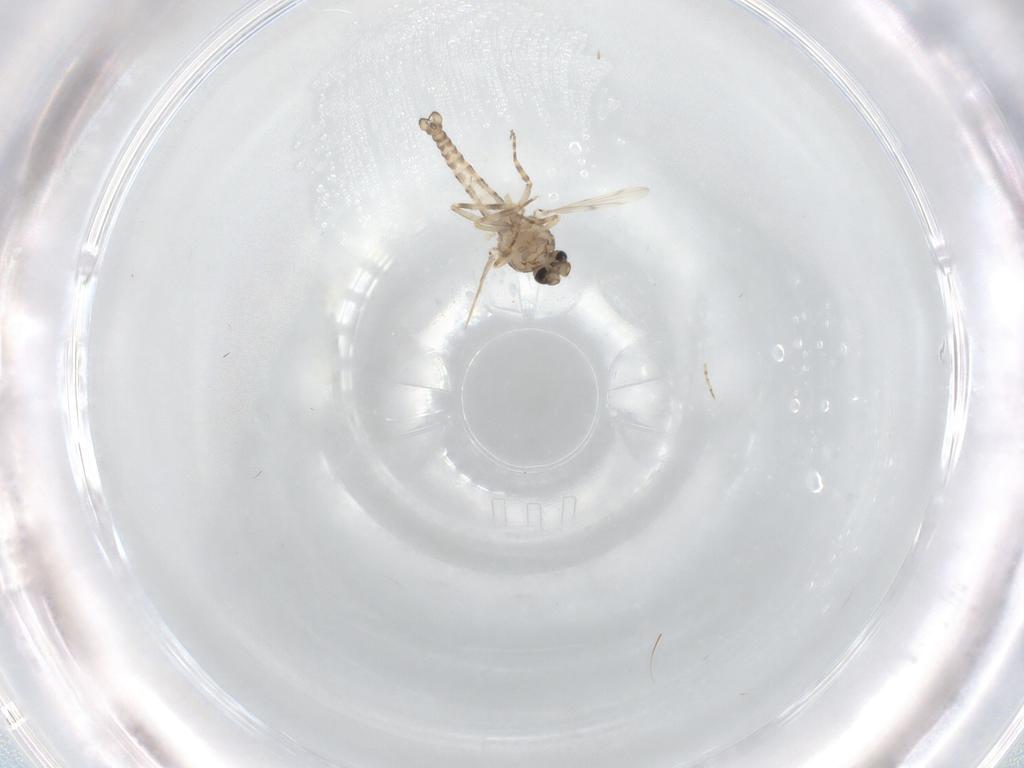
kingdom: Animalia
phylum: Arthropoda
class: Insecta
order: Diptera
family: Ceratopogonidae
